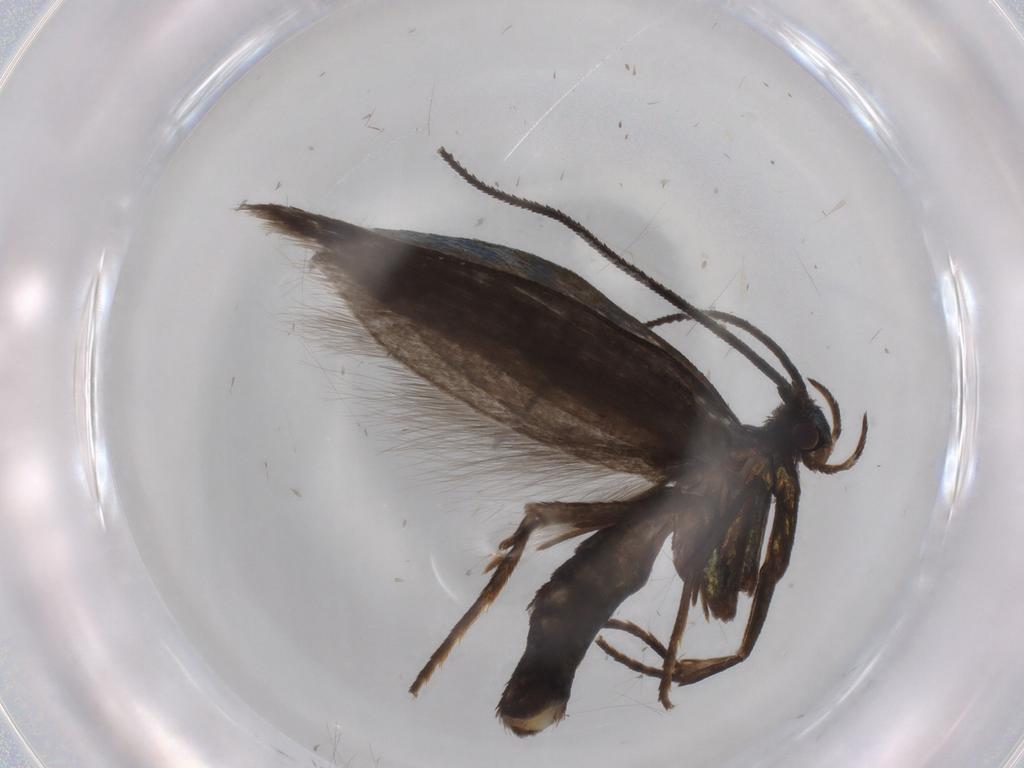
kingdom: Animalia
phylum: Arthropoda
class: Insecta
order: Lepidoptera
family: Argyresthiidae
